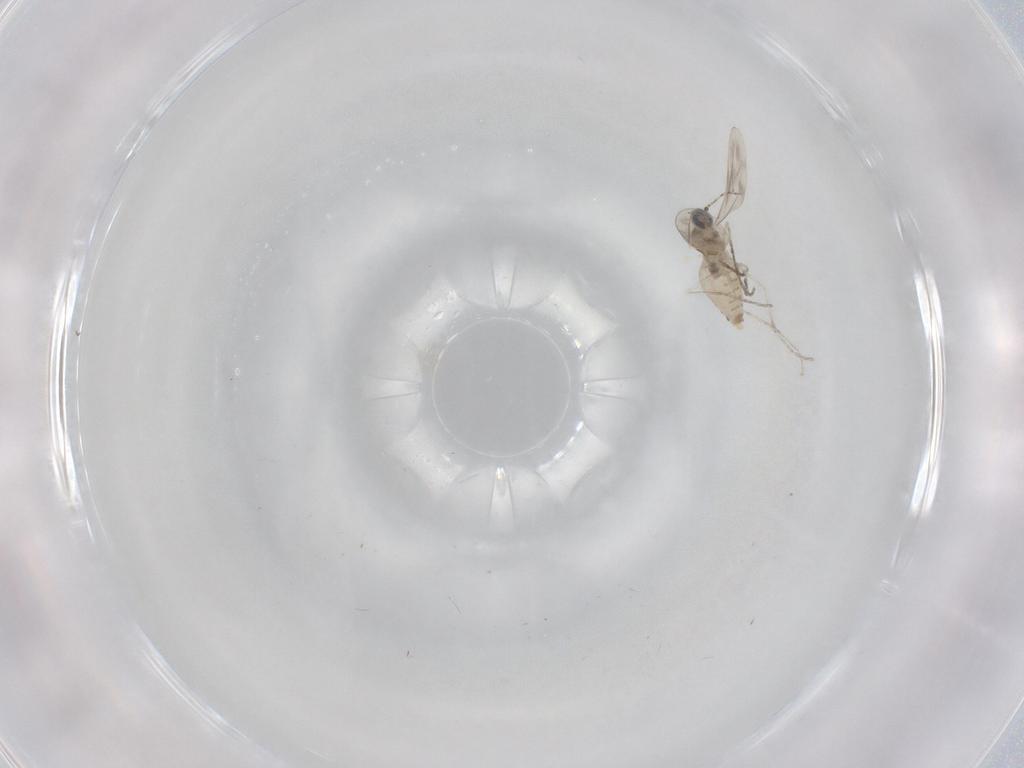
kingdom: Animalia
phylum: Arthropoda
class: Insecta
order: Diptera
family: Cecidomyiidae
